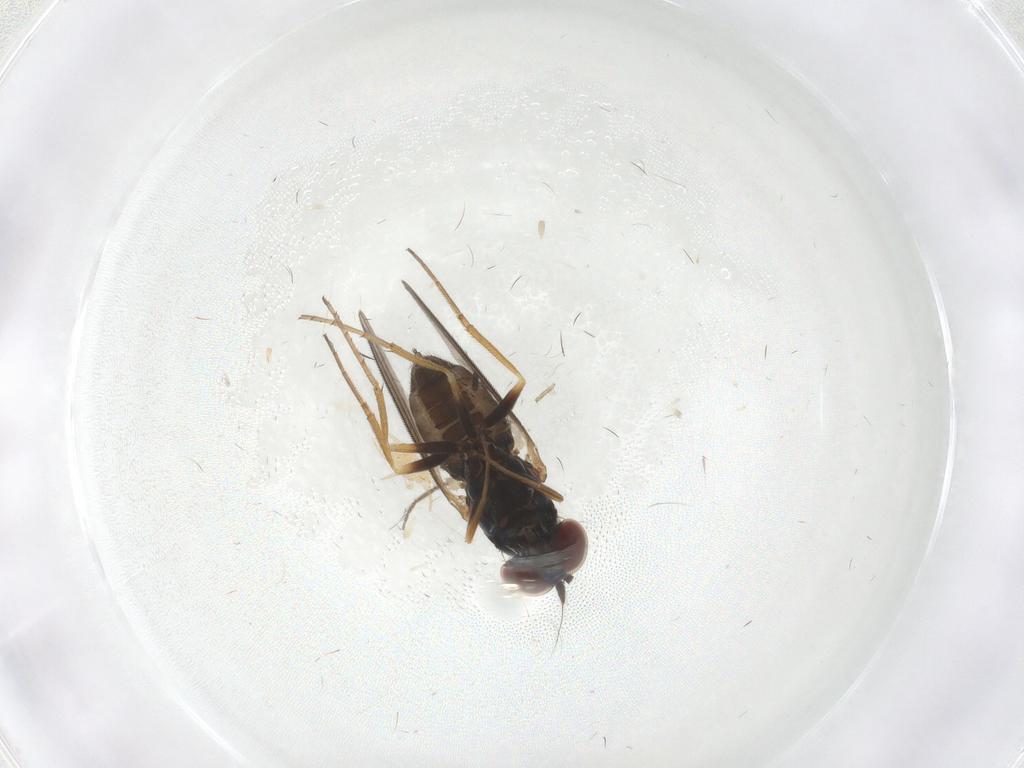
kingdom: Animalia
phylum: Arthropoda
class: Insecta
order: Diptera
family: Dolichopodidae
